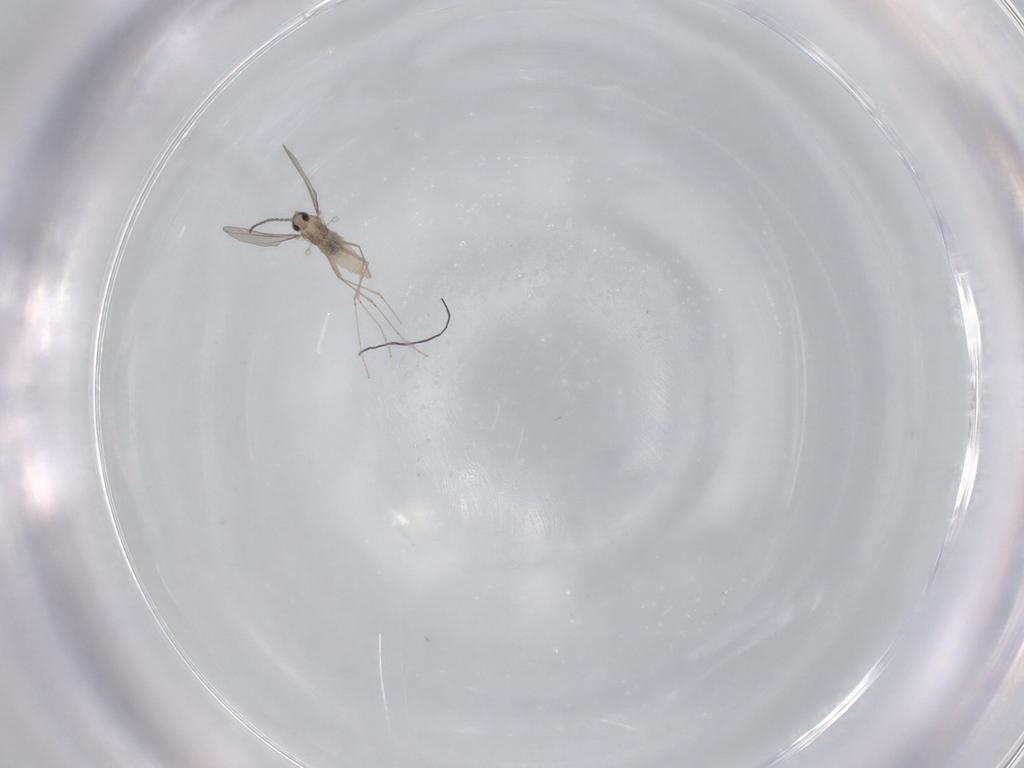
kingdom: Animalia
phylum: Arthropoda
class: Insecta
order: Diptera
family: Cecidomyiidae
